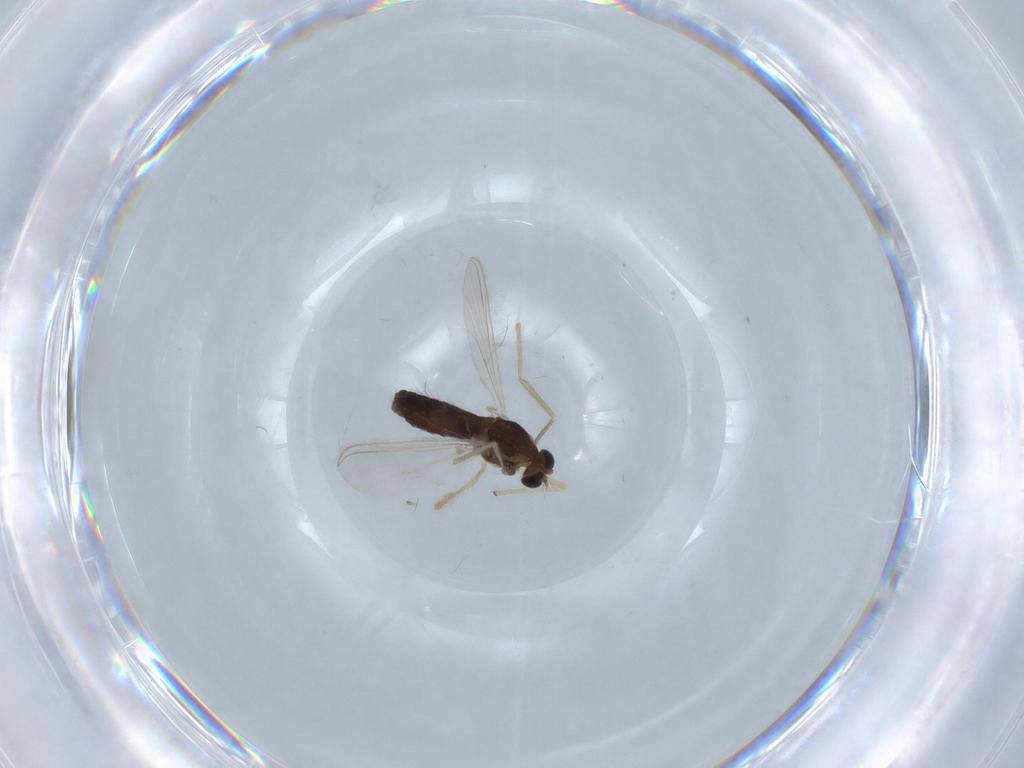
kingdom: Animalia
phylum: Arthropoda
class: Insecta
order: Diptera
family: Chironomidae
